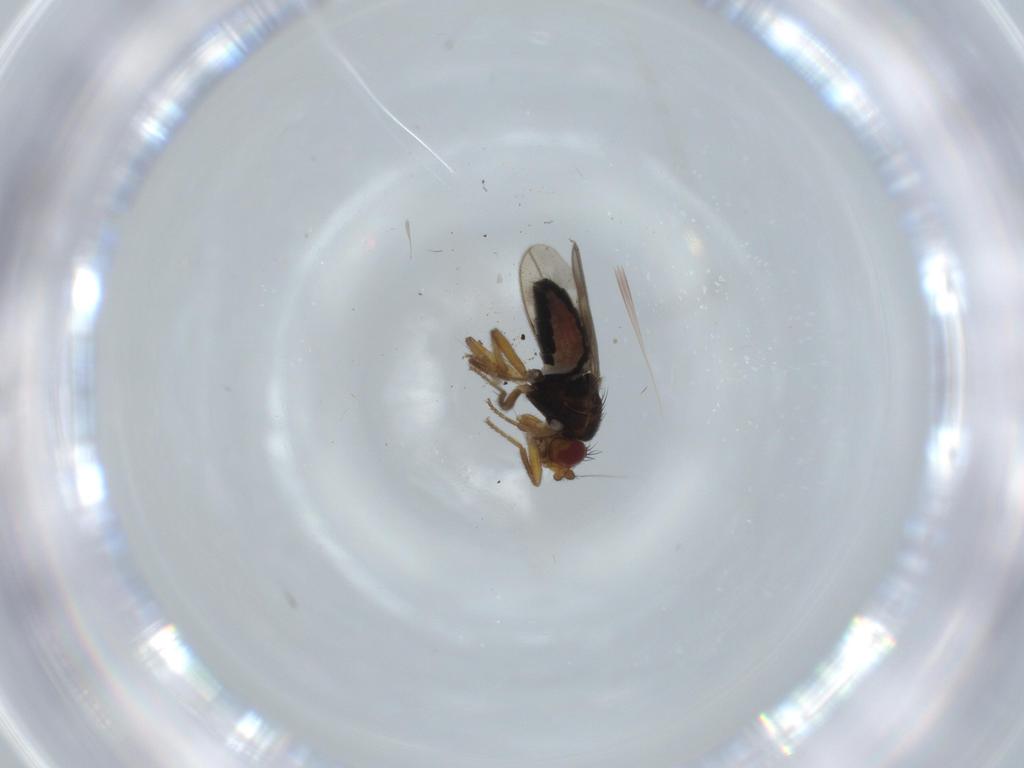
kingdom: Animalia
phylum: Arthropoda
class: Insecta
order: Diptera
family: Sphaeroceridae
